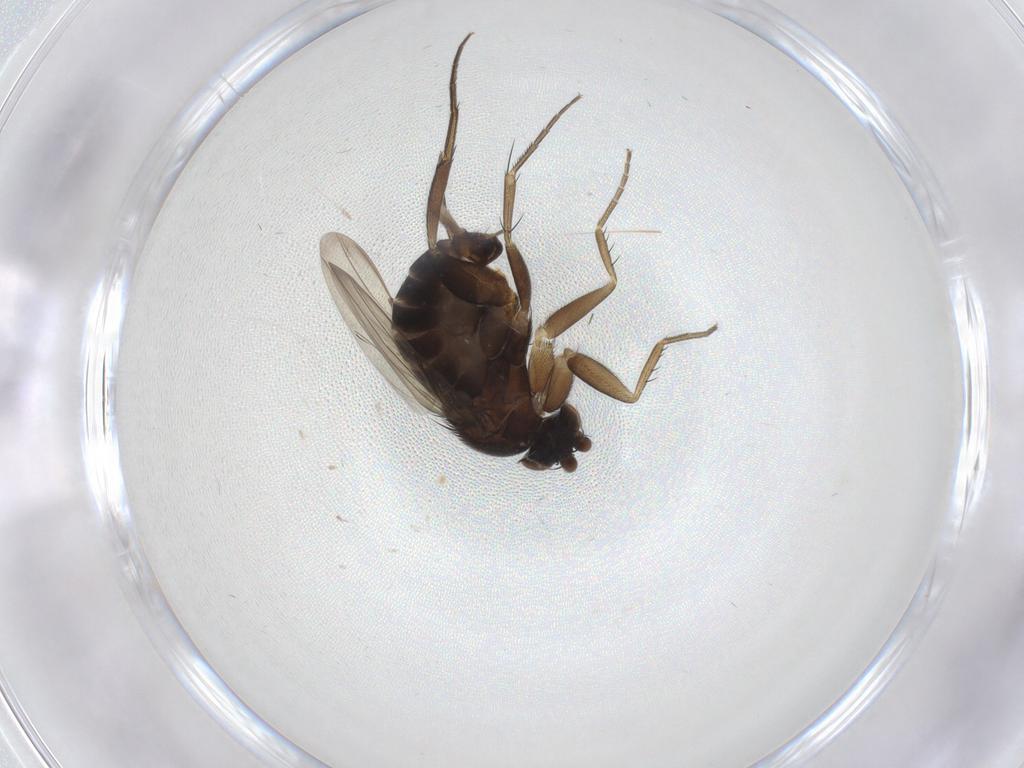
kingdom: Animalia
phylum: Arthropoda
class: Insecta
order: Diptera
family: Phoridae
